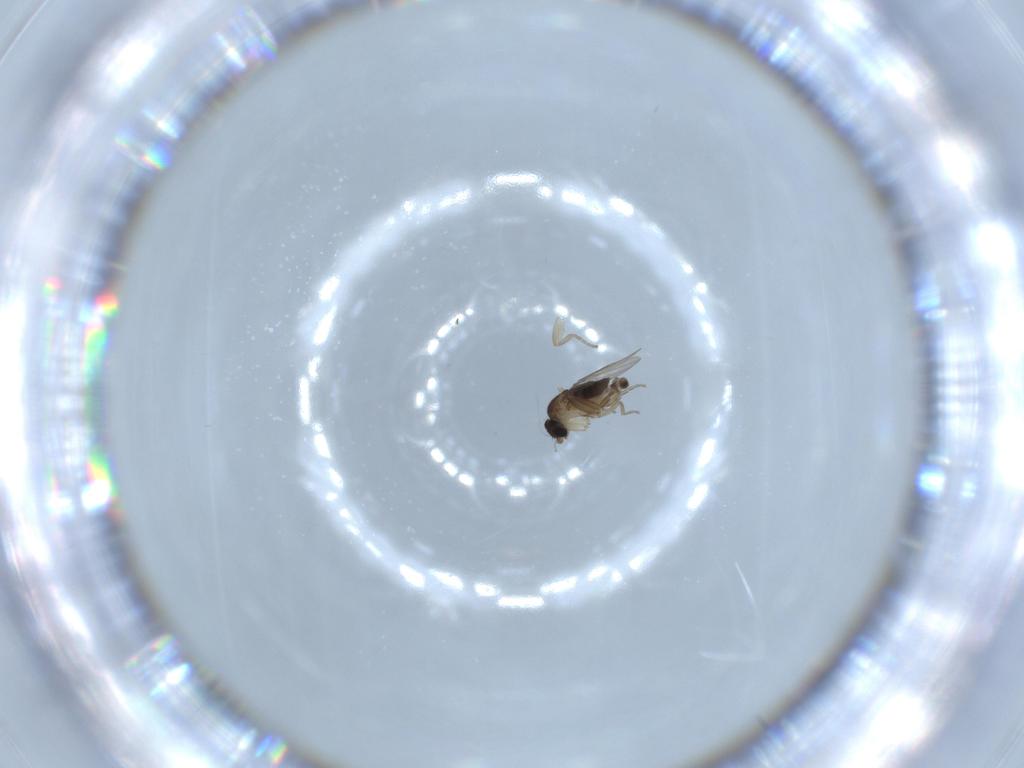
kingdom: Animalia
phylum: Arthropoda
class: Insecta
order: Diptera
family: Phoridae
